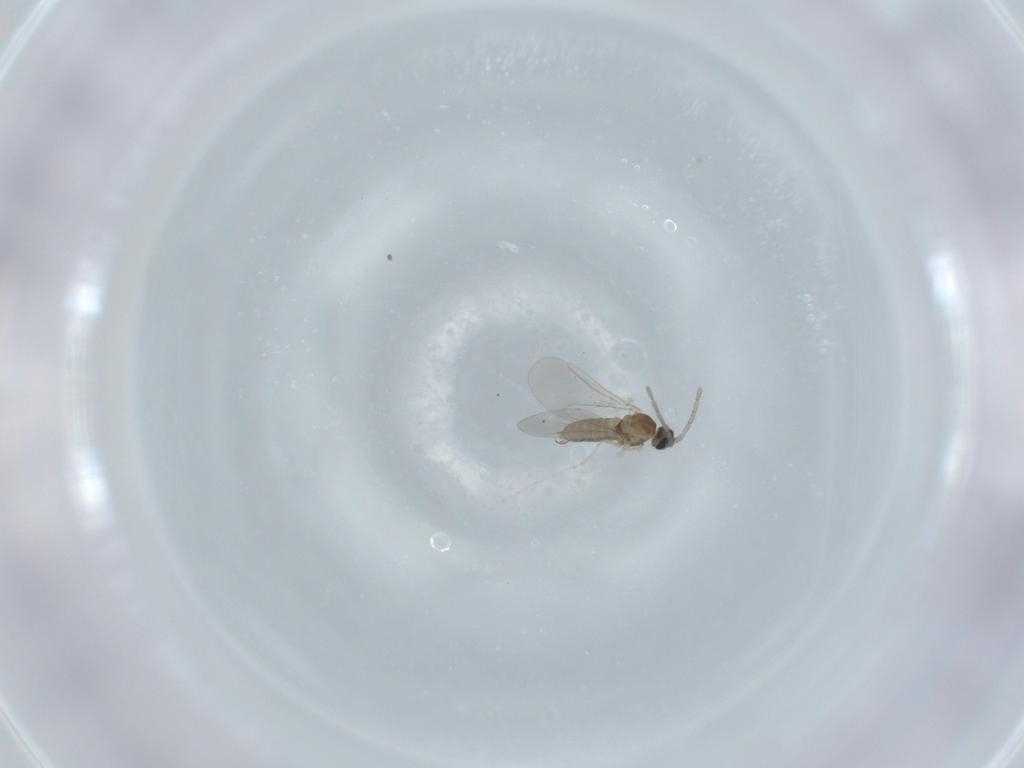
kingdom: Animalia
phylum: Arthropoda
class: Insecta
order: Diptera
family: Cecidomyiidae
